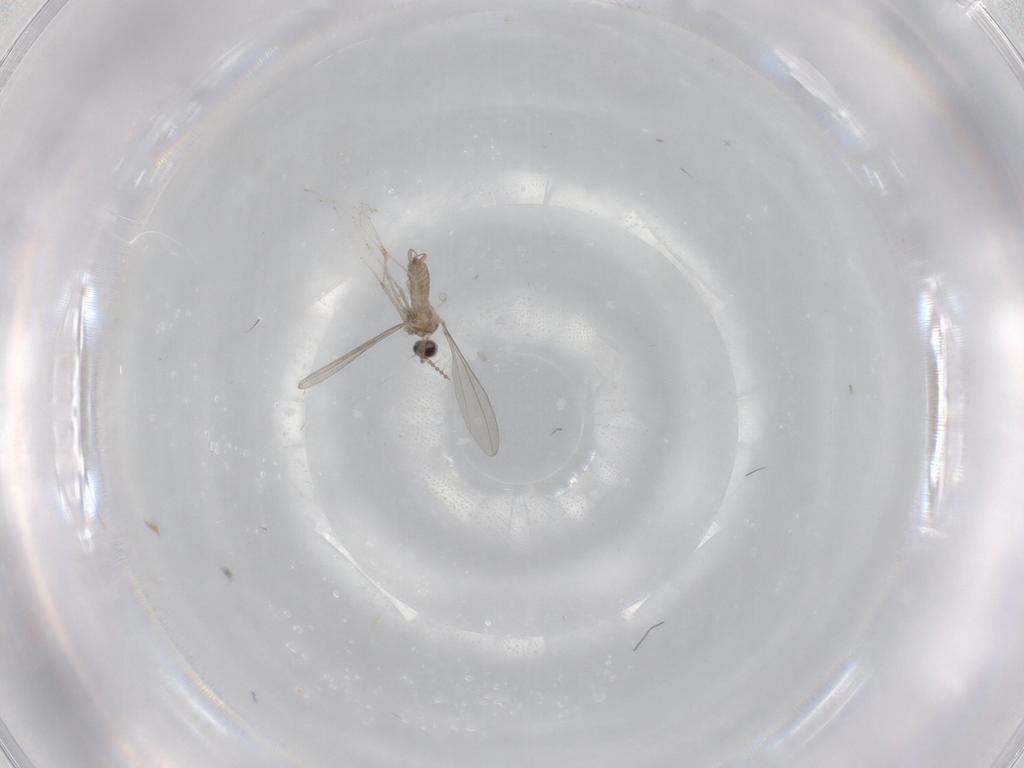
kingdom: Animalia
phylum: Arthropoda
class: Insecta
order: Diptera
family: Cecidomyiidae
